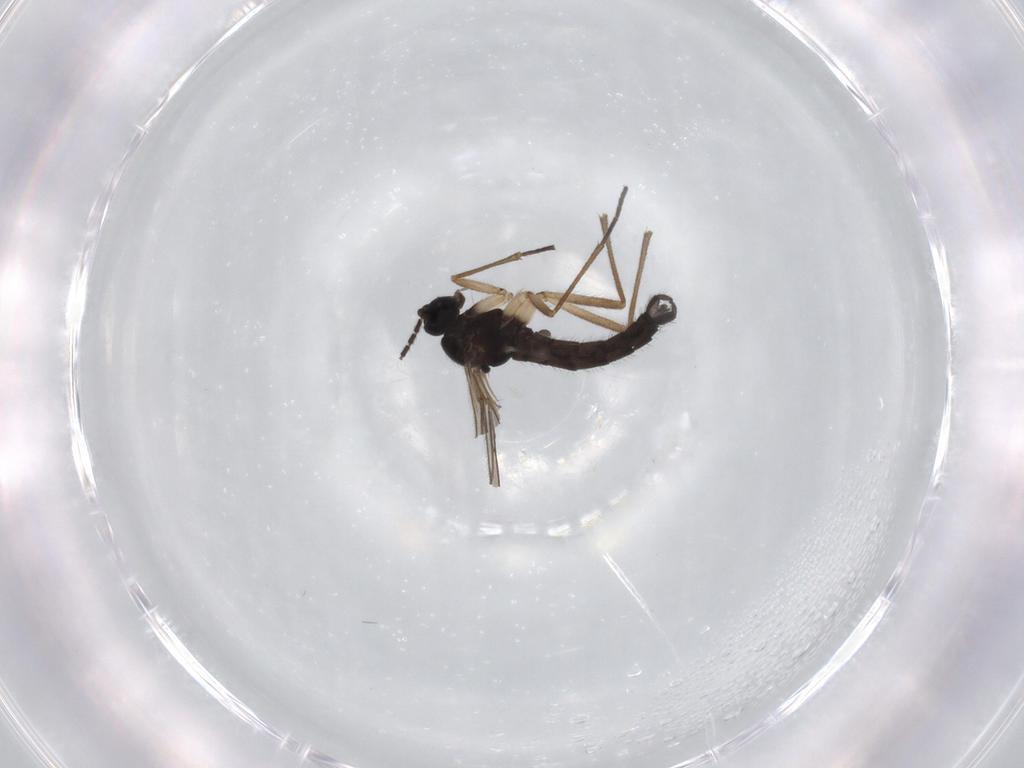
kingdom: Animalia
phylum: Arthropoda
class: Insecta
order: Diptera
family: Sciaridae
